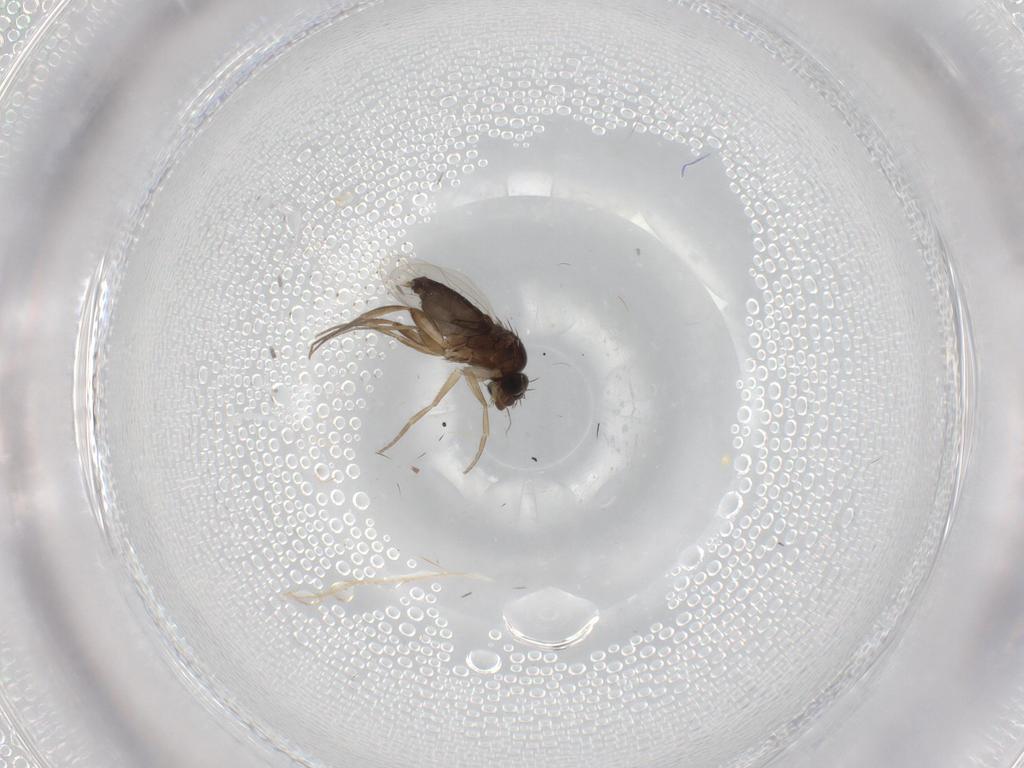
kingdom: Animalia
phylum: Arthropoda
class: Insecta
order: Diptera
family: Phoridae
